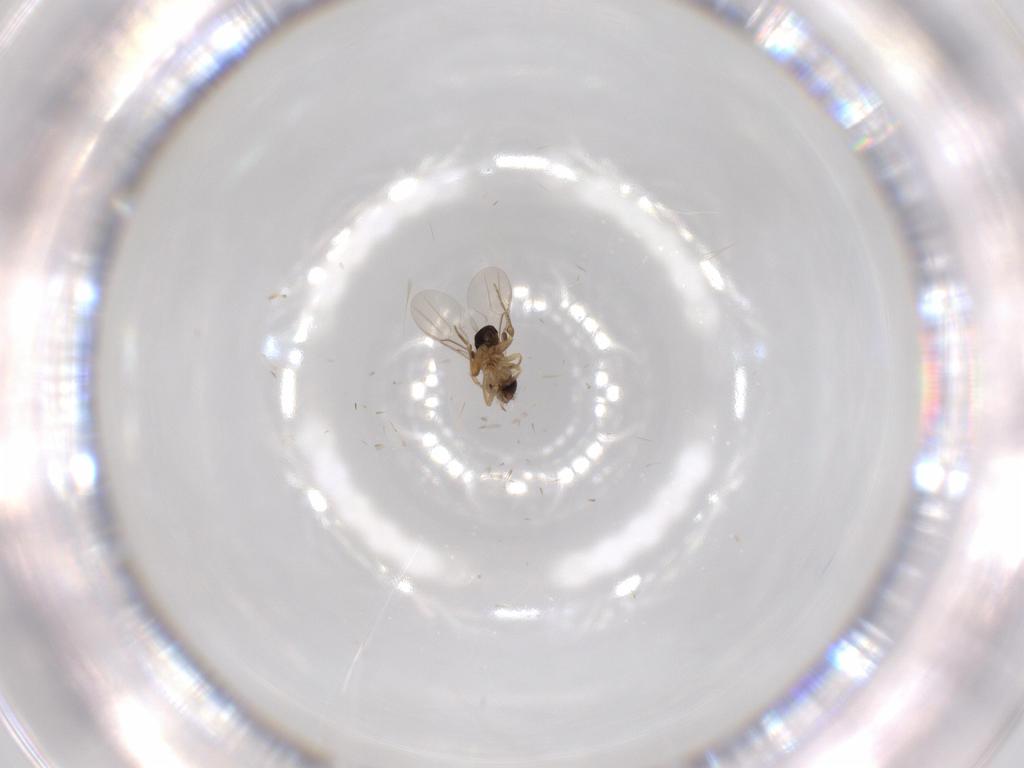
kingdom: Animalia
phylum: Arthropoda
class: Insecta
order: Diptera
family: Phoridae
